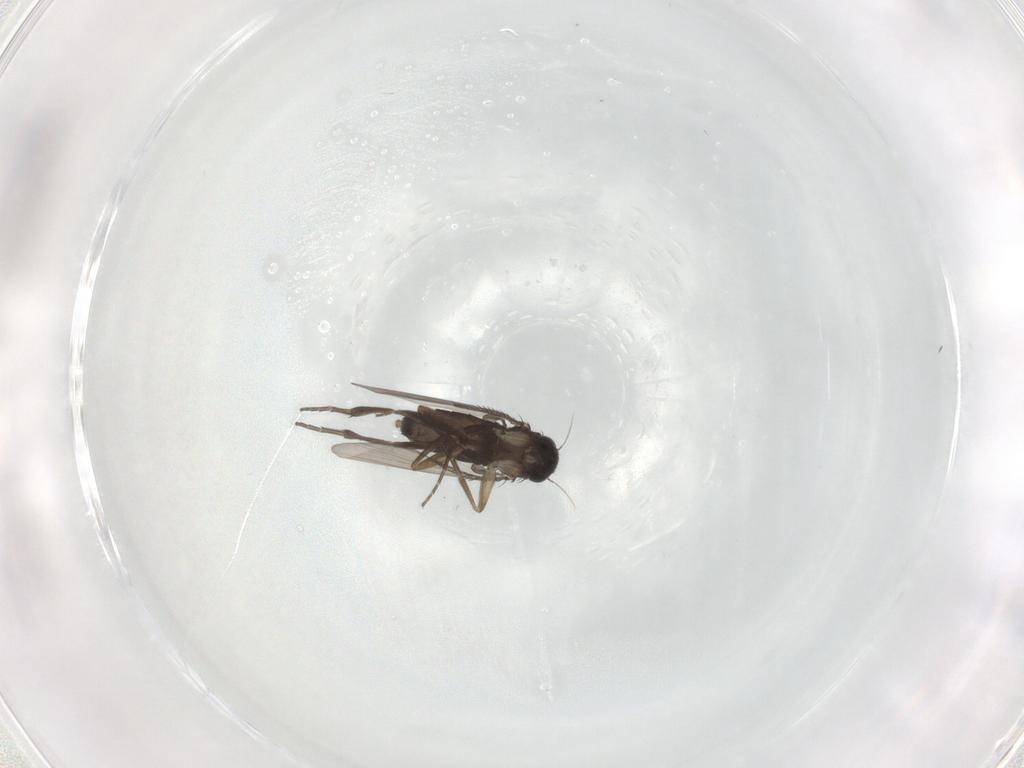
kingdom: Animalia
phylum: Arthropoda
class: Insecta
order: Diptera
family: Phoridae
